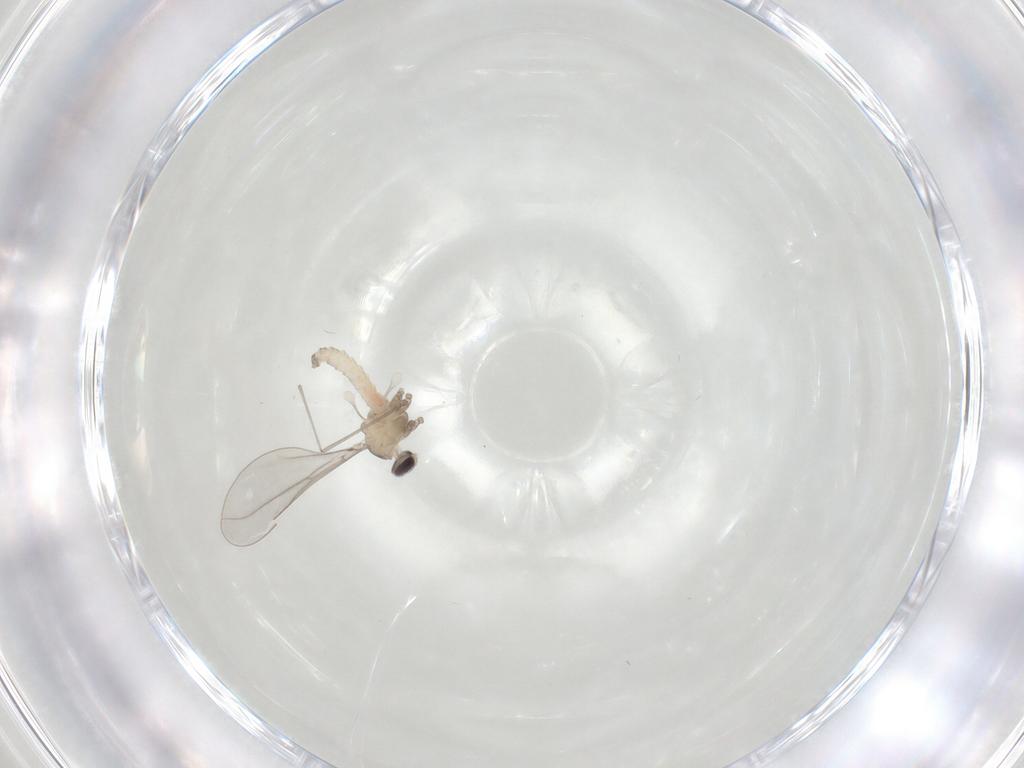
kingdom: Animalia
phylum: Arthropoda
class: Insecta
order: Diptera
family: Cecidomyiidae
